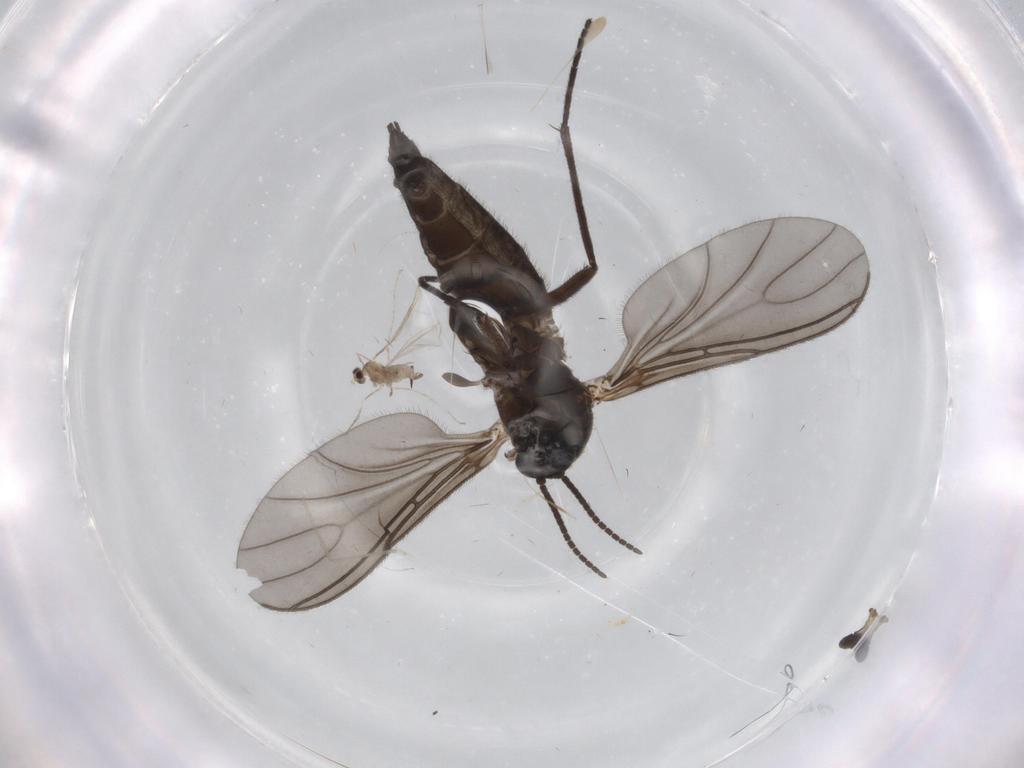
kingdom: Animalia
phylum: Arthropoda
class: Insecta
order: Diptera
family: Sciaridae
